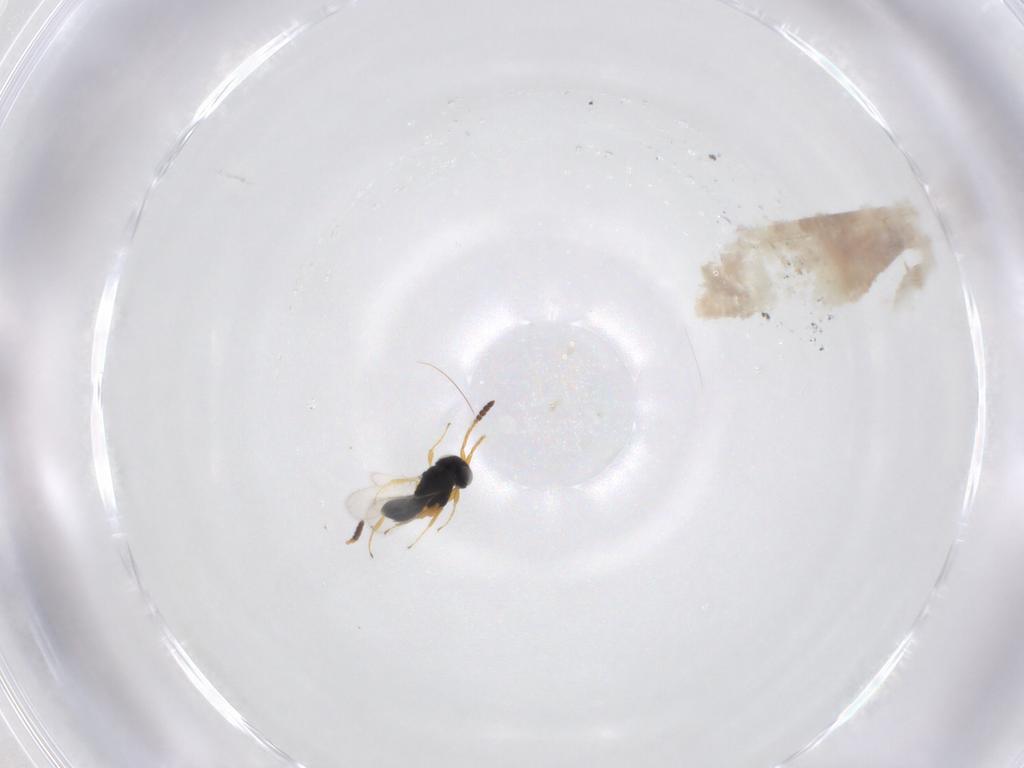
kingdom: Animalia
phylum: Arthropoda
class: Insecta
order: Hymenoptera
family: Scelionidae
